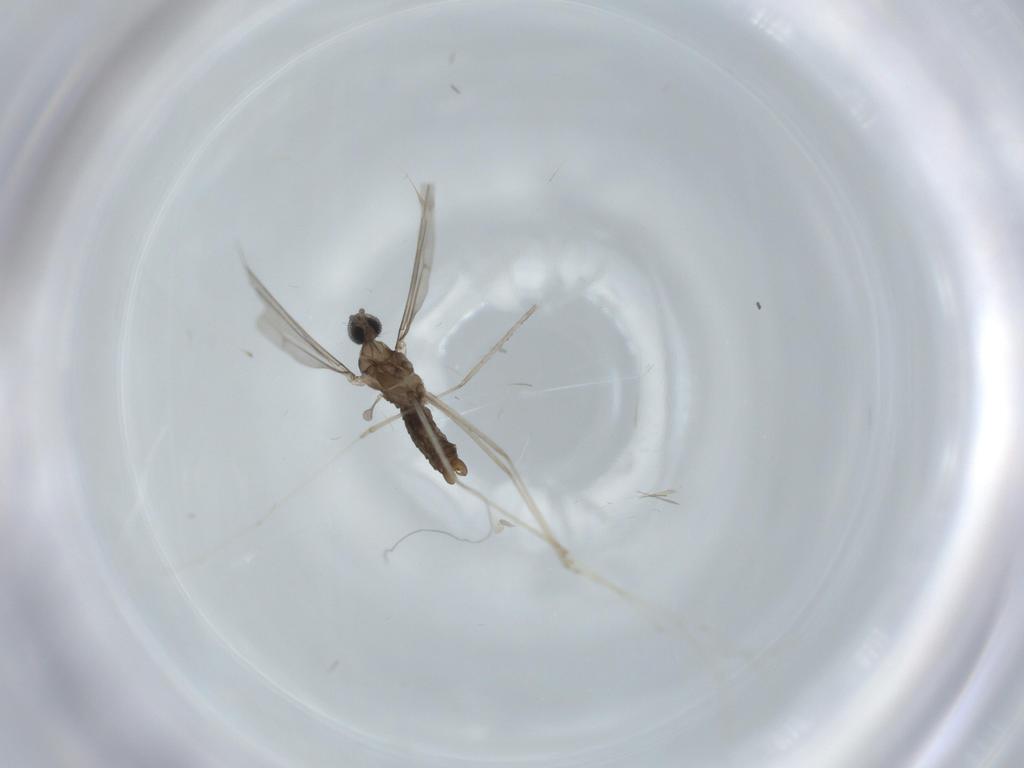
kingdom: Animalia
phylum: Arthropoda
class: Insecta
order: Diptera
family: Cecidomyiidae
